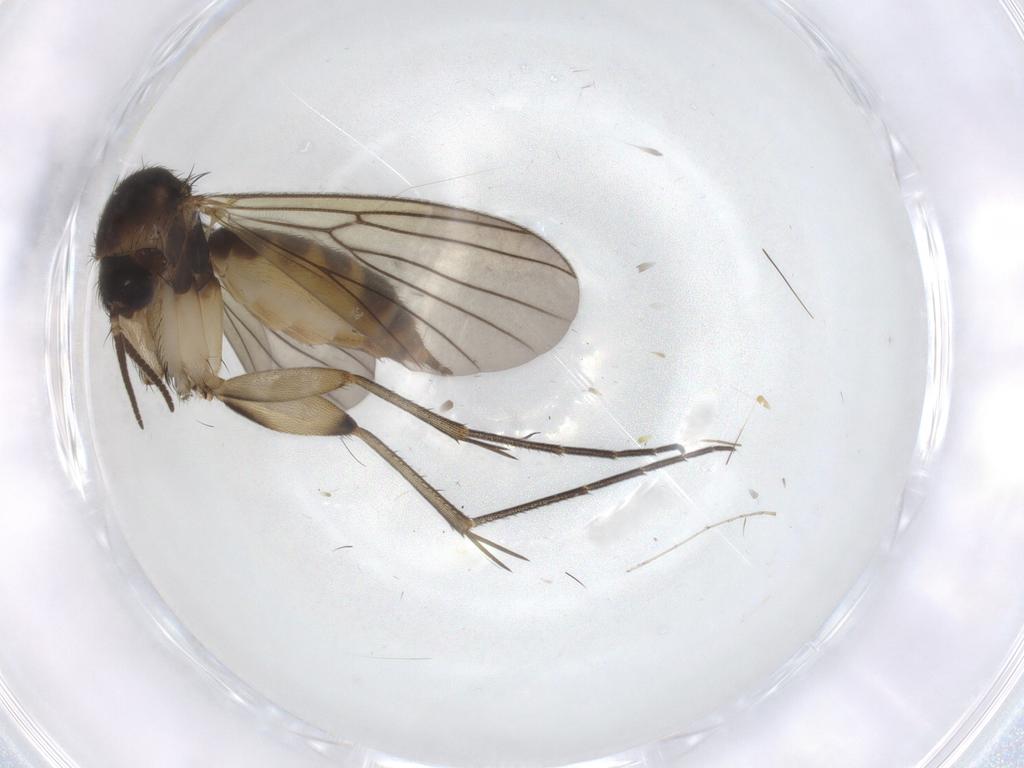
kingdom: Animalia
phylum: Arthropoda
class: Insecta
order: Diptera
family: Mycetophilidae
